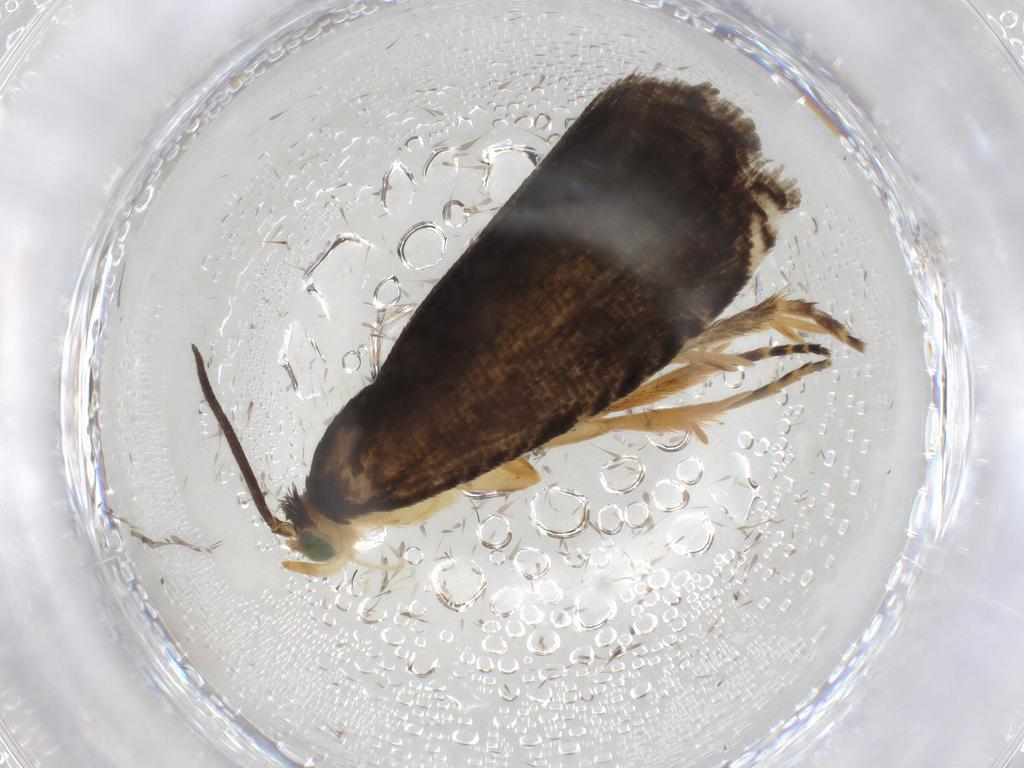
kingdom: Animalia
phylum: Arthropoda
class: Insecta
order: Lepidoptera
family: Tortricidae
